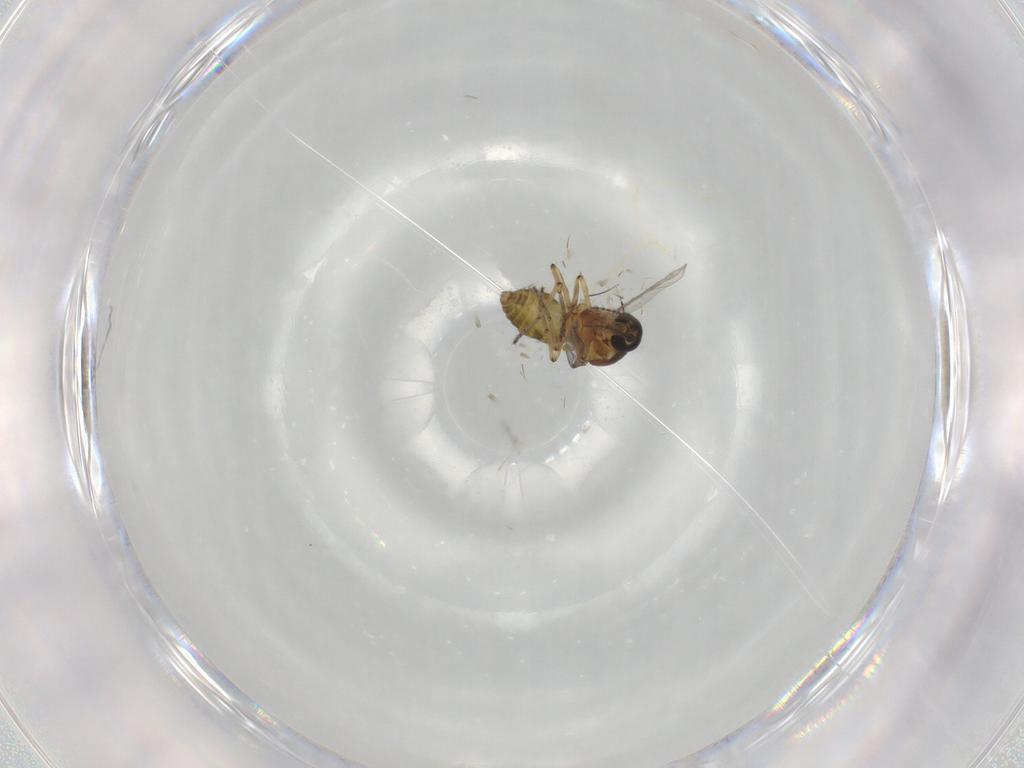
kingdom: Animalia
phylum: Arthropoda
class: Insecta
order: Diptera
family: Ceratopogonidae
